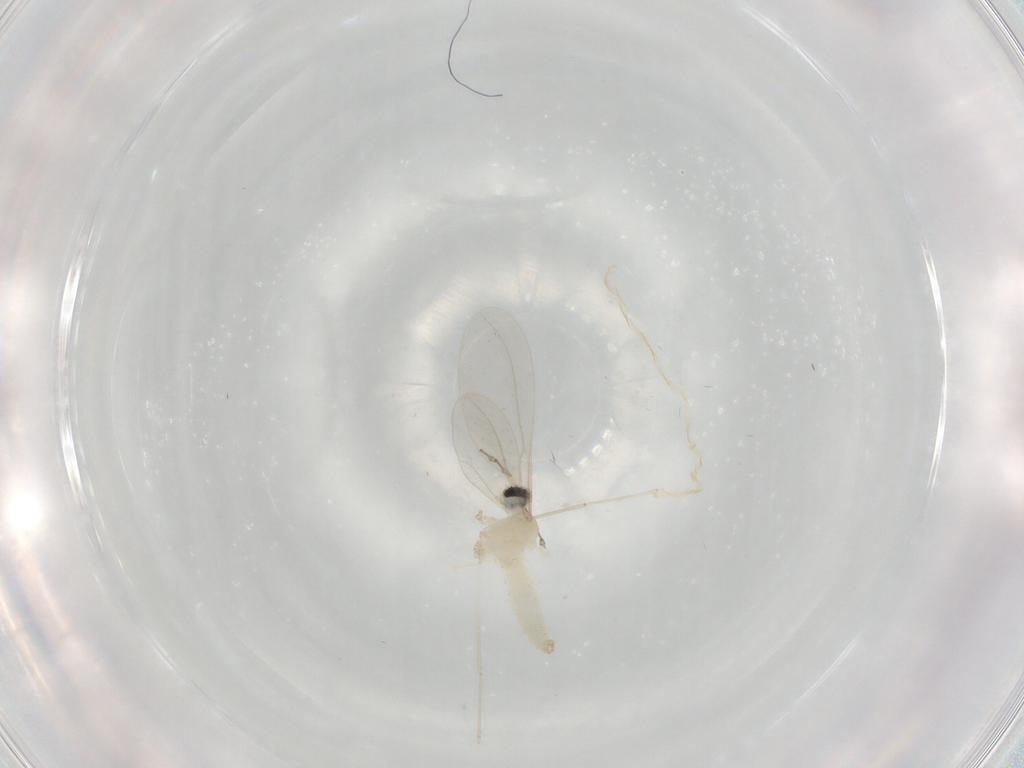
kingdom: Animalia
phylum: Arthropoda
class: Insecta
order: Diptera
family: Cecidomyiidae
